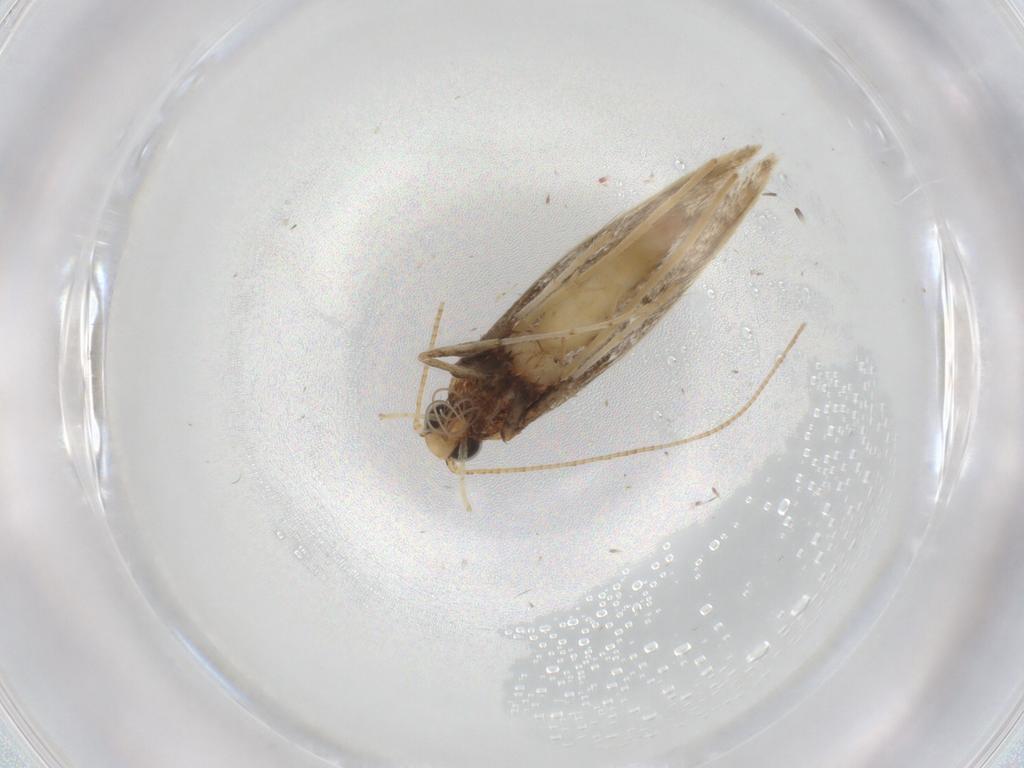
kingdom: Animalia
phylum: Arthropoda
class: Insecta
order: Lepidoptera
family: Gracillariidae
